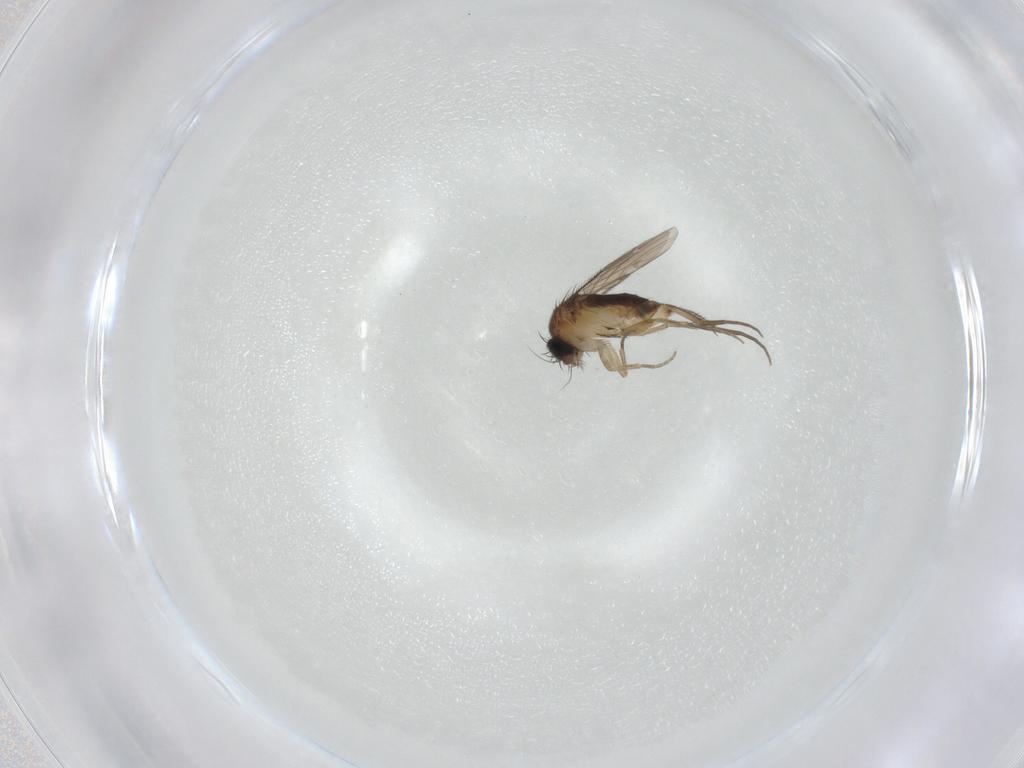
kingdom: Animalia
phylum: Arthropoda
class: Insecta
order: Diptera
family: Phoridae
